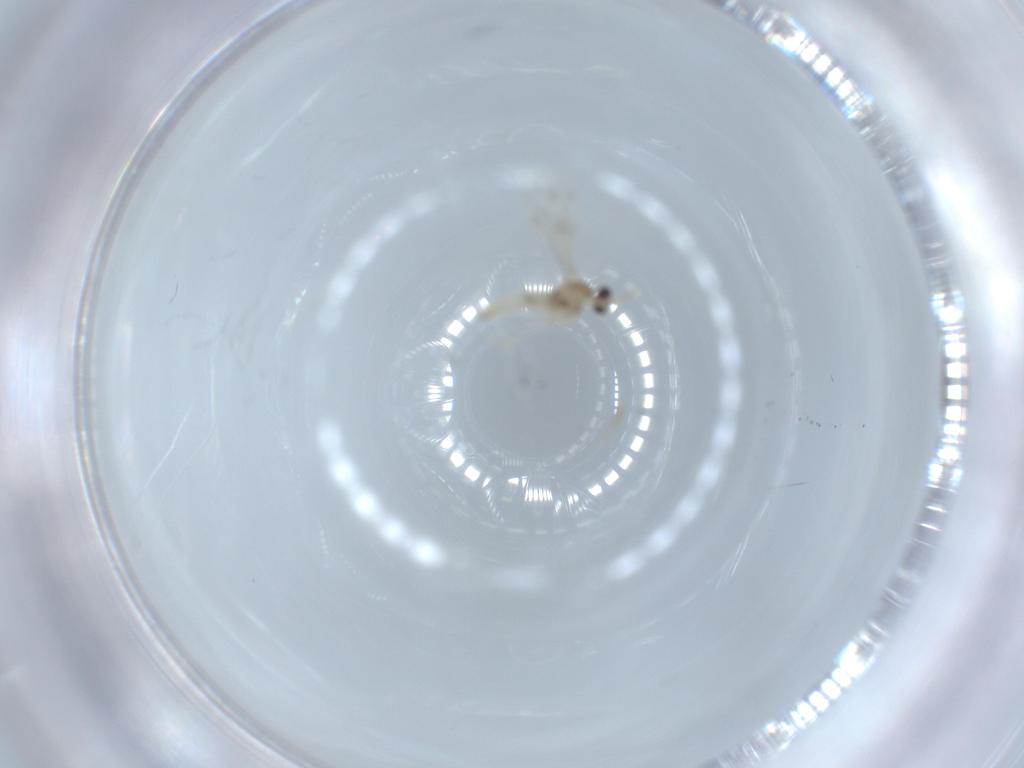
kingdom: Animalia
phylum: Arthropoda
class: Insecta
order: Diptera
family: Cecidomyiidae
